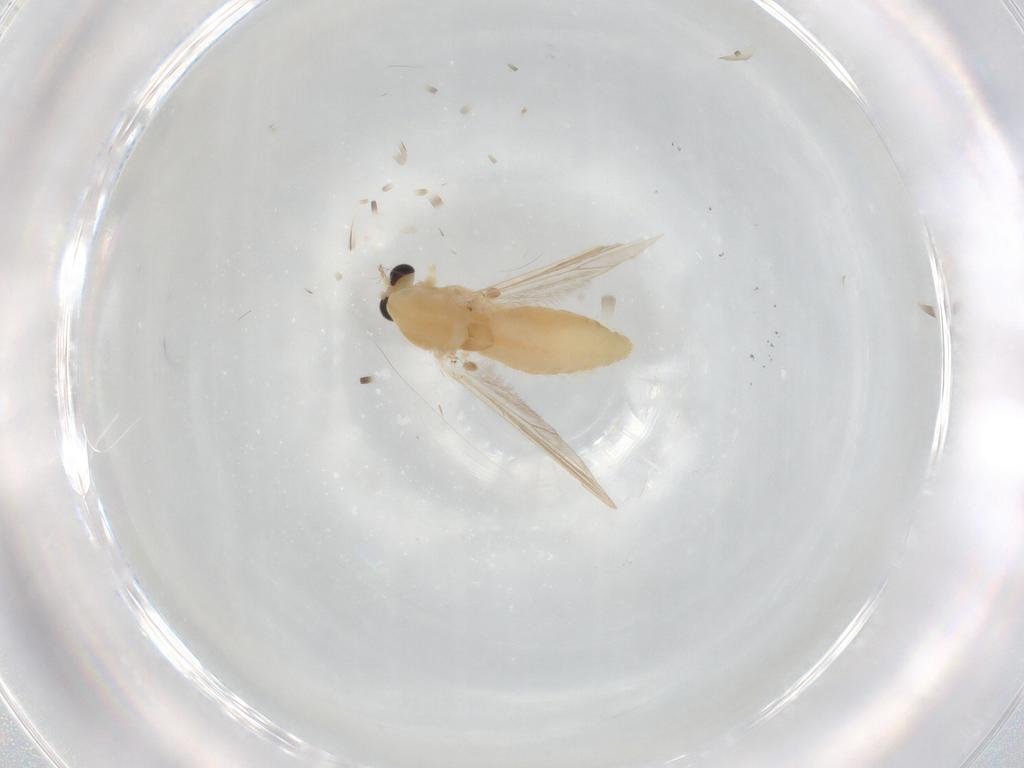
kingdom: Animalia
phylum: Arthropoda
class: Insecta
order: Diptera
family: Chironomidae
